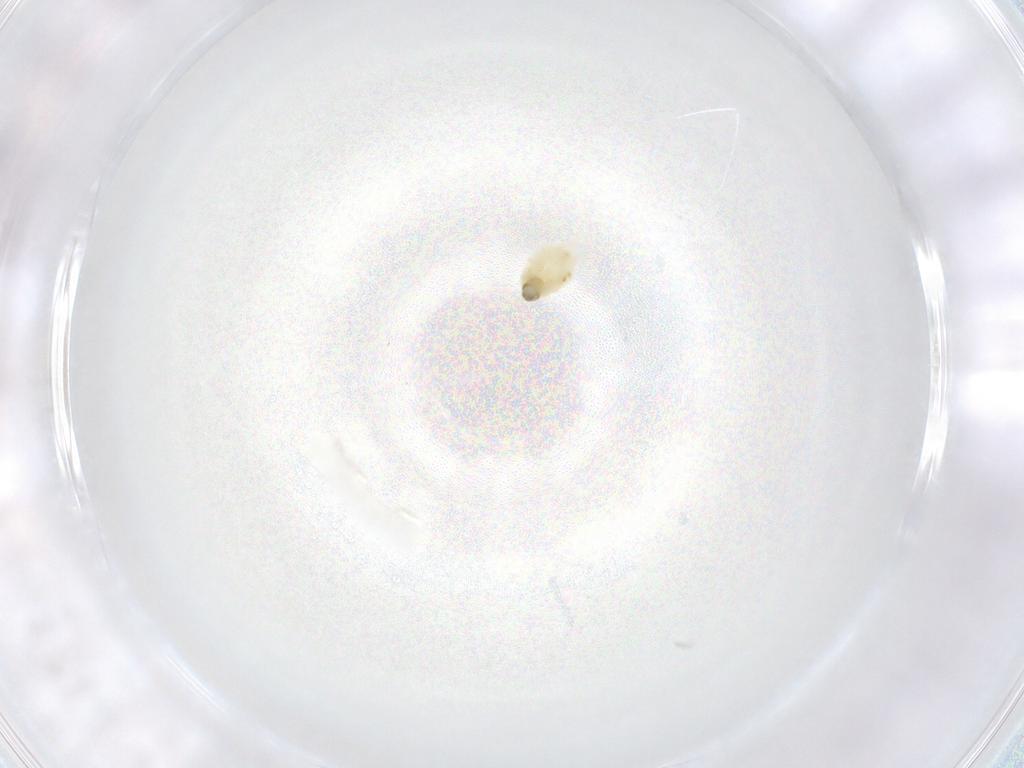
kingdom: Animalia
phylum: Arthropoda
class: Arachnida
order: Trombidiformes
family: Tetranychidae
